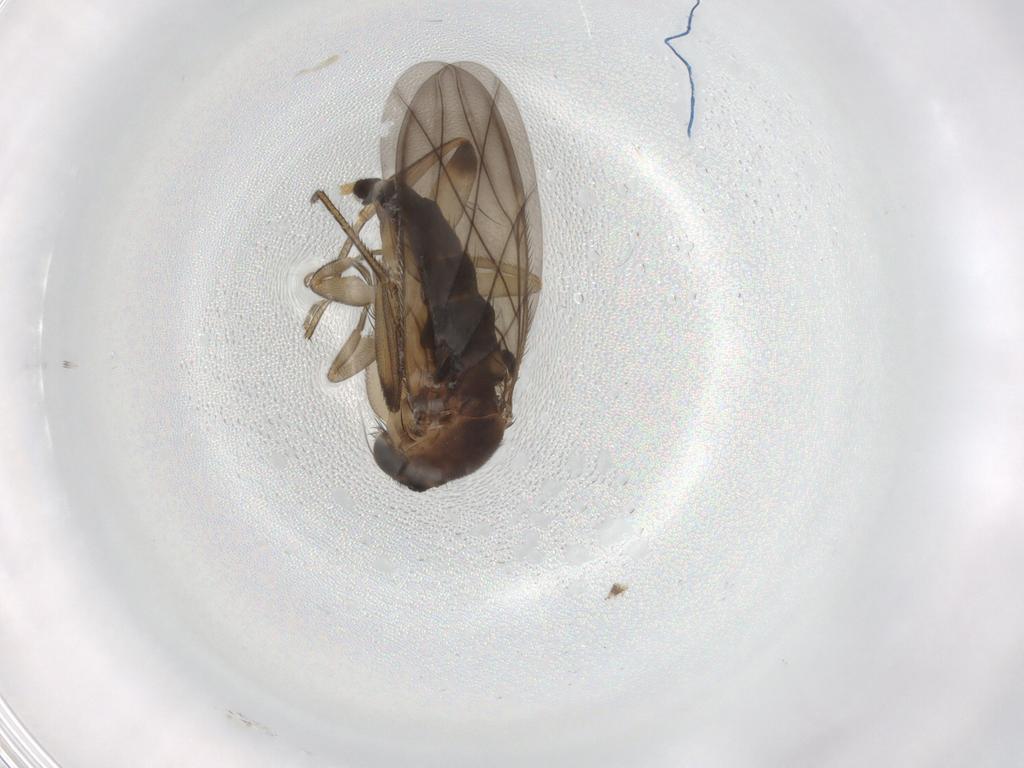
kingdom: Animalia
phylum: Arthropoda
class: Insecta
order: Diptera
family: Phoridae
